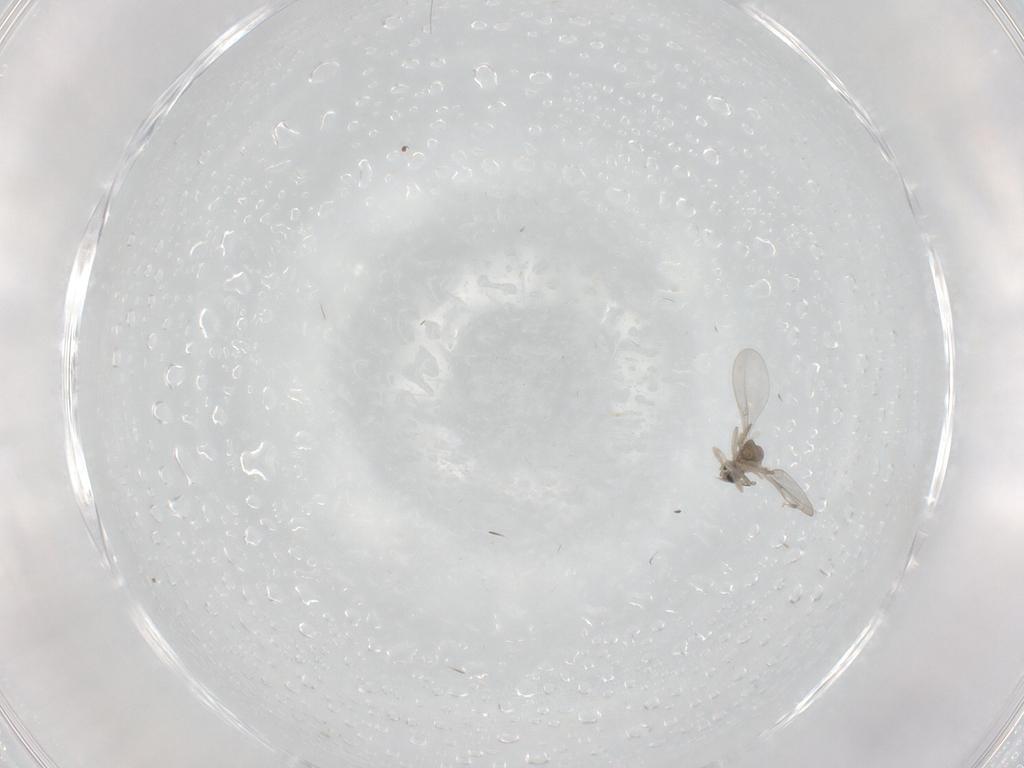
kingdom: Animalia
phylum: Arthropoda
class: Insecta
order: Diptera
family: Cecidomyiidae
